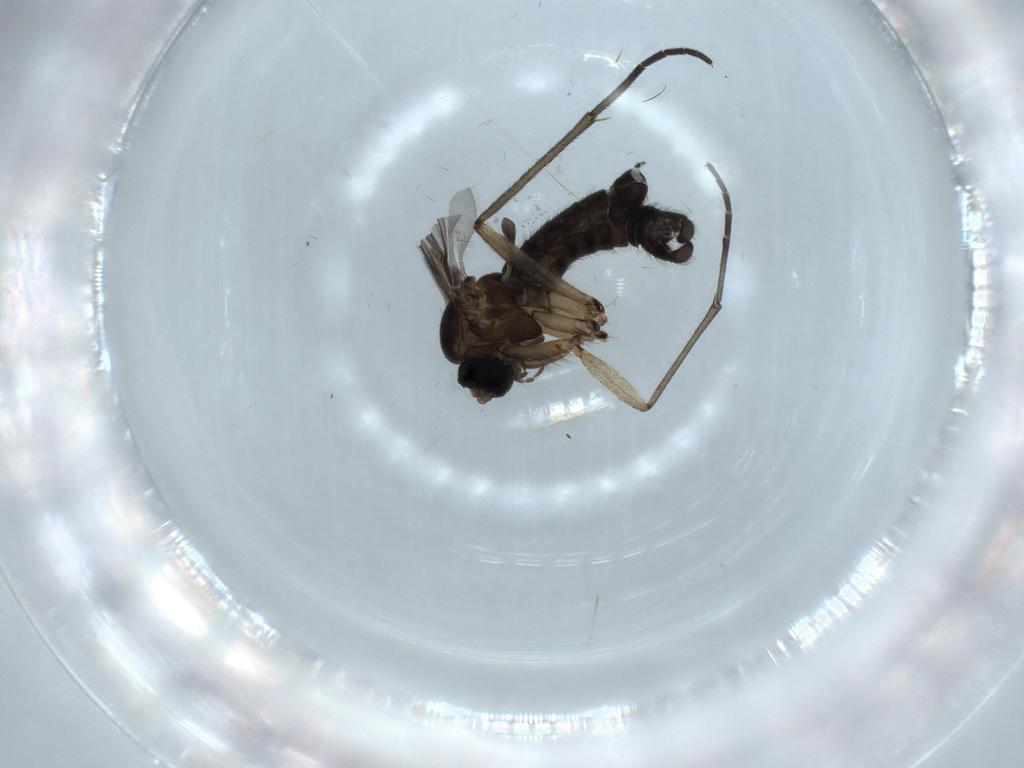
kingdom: Animalia
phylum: Arthropoda
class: Insecta
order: Diptera
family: Sciaridae
